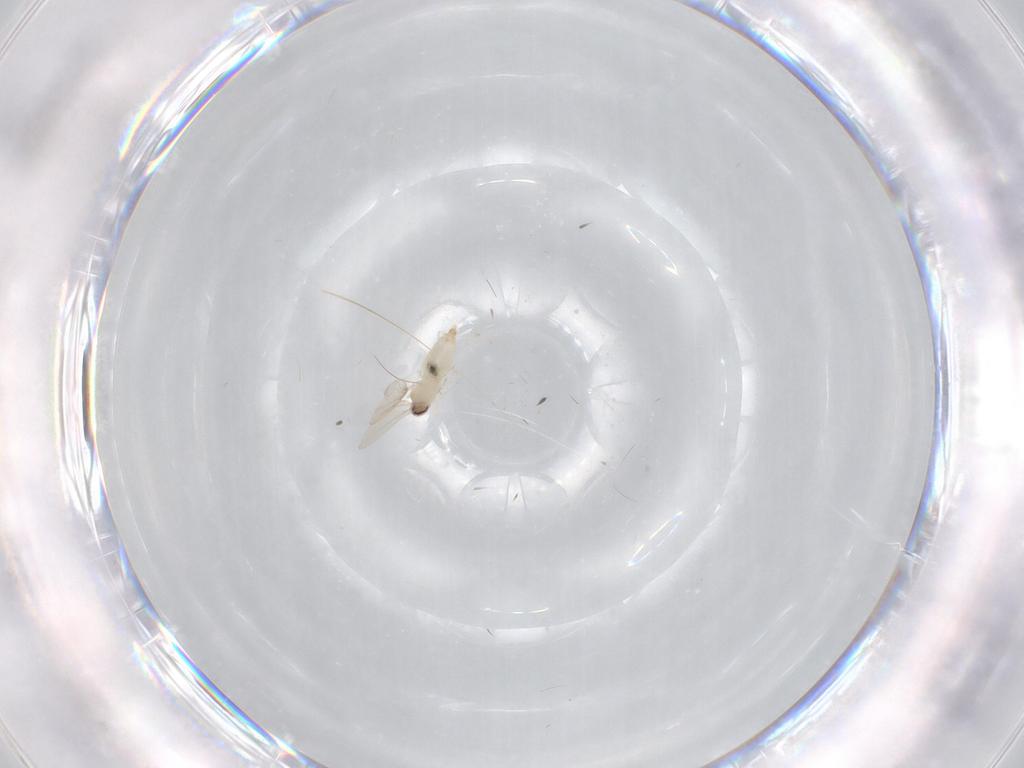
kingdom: Animalia
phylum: Arthropoda
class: Insecta
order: Diptera
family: Cecidomyiidae
